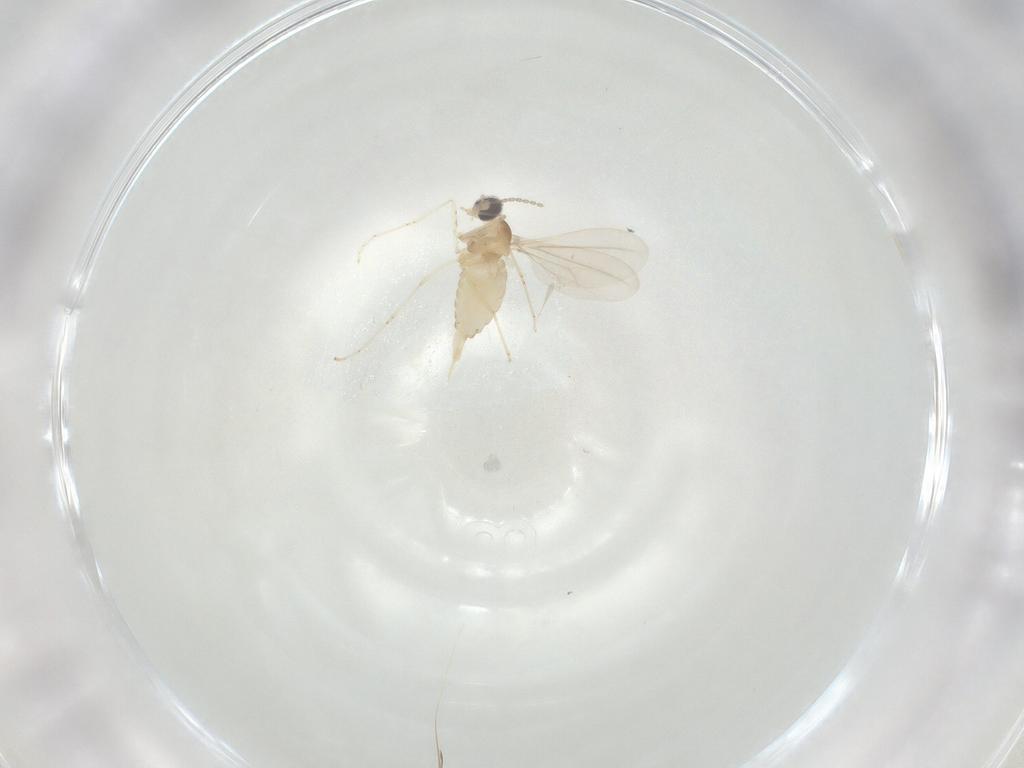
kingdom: Animalia
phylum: Arthropoda
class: Insecta
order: Diptera
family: Cecidomyiidae
